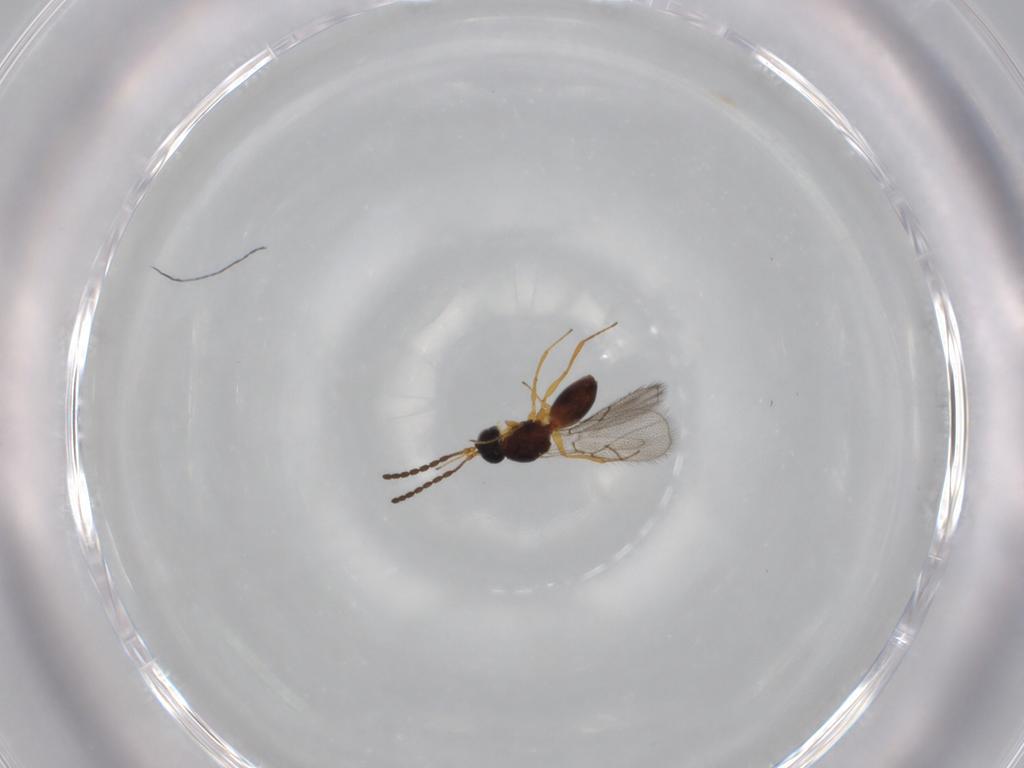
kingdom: Animalia
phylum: Arthropoda
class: Insecta
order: Hymenoptera
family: Figitidae
